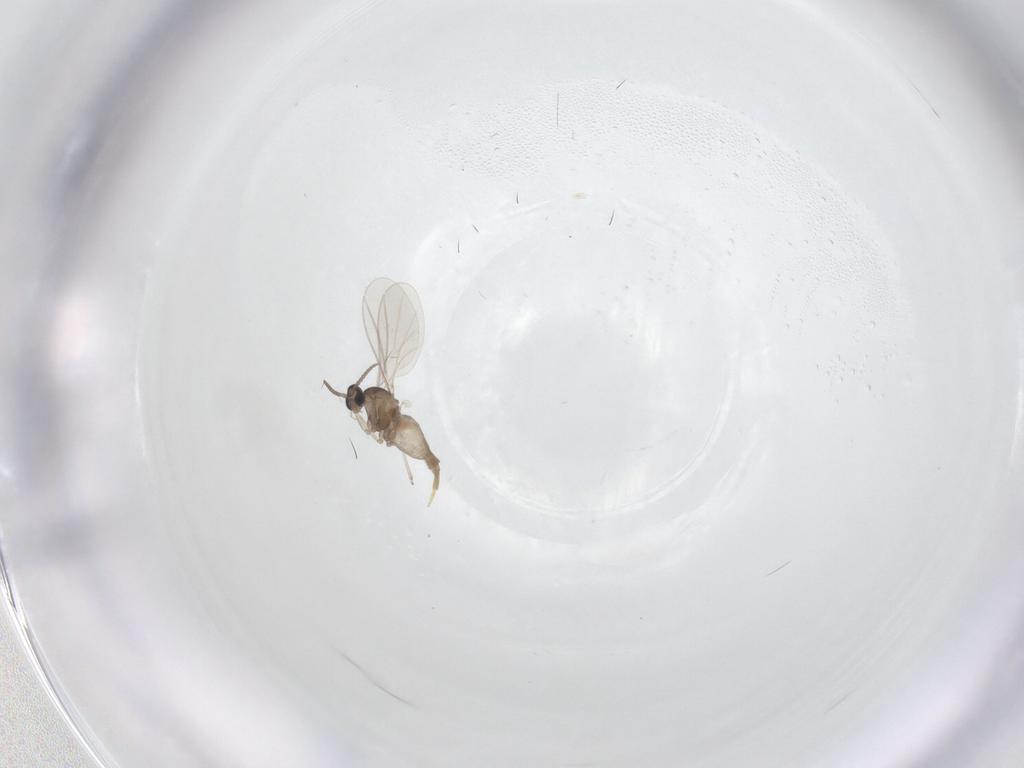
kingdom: Animalia
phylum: Arthropoda
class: Insecta
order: Diptera
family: Cecidomyiidae
